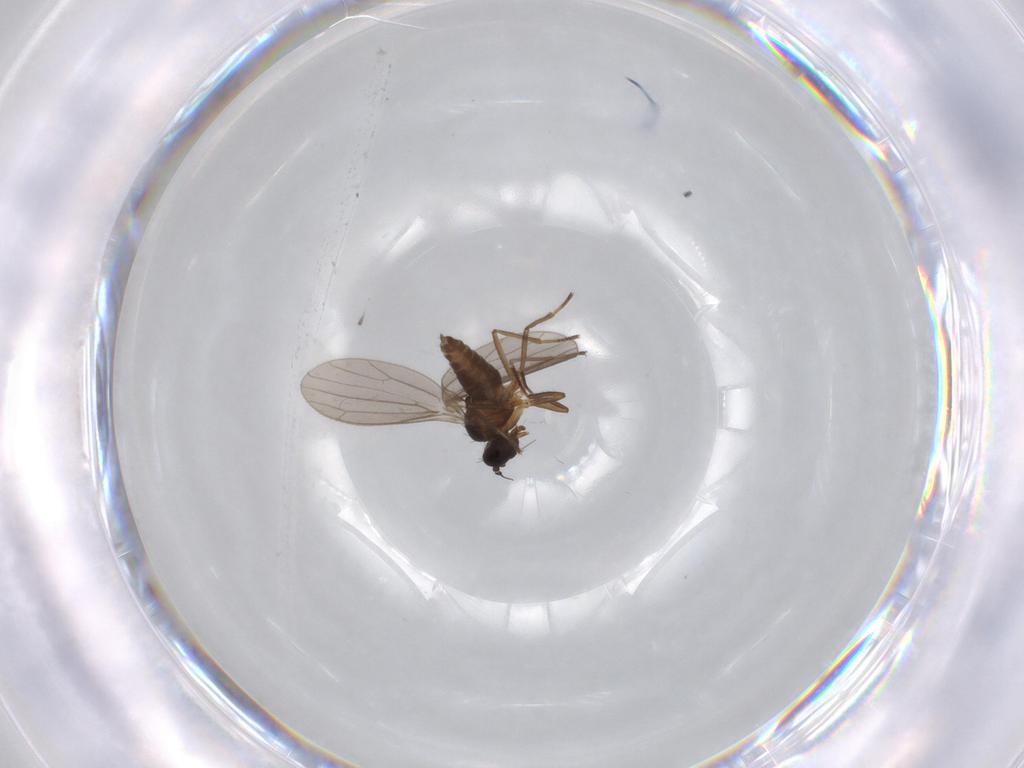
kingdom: Animalia
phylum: Arthropoda
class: Insecta
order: Diptera
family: Empididae
